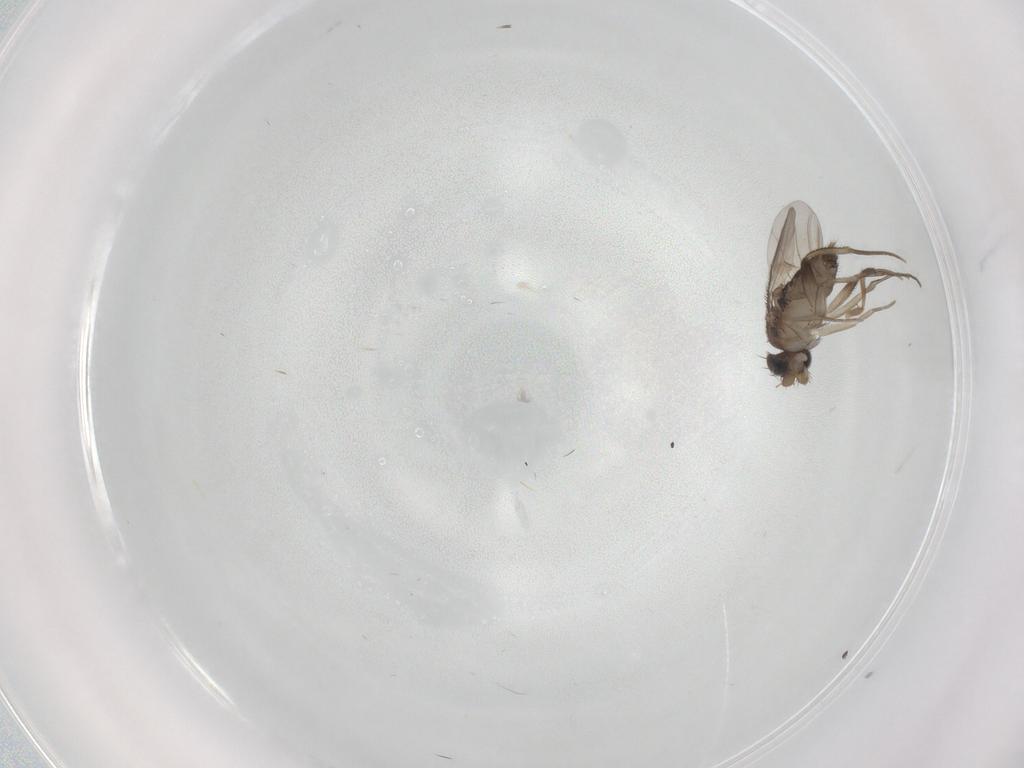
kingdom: Animalia
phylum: Arthropoda
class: Insecta
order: Diptera
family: Phoridae
